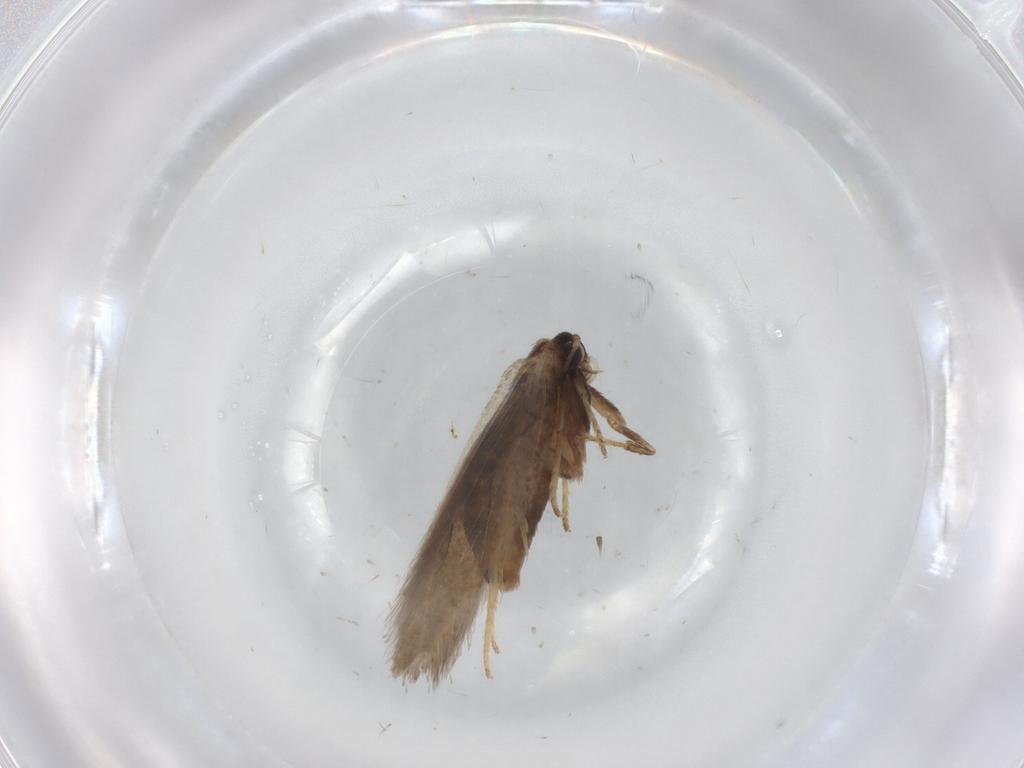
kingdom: Animalia
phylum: Arthropoda
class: Insecta
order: Lepidoptera
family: Nepticulidae
